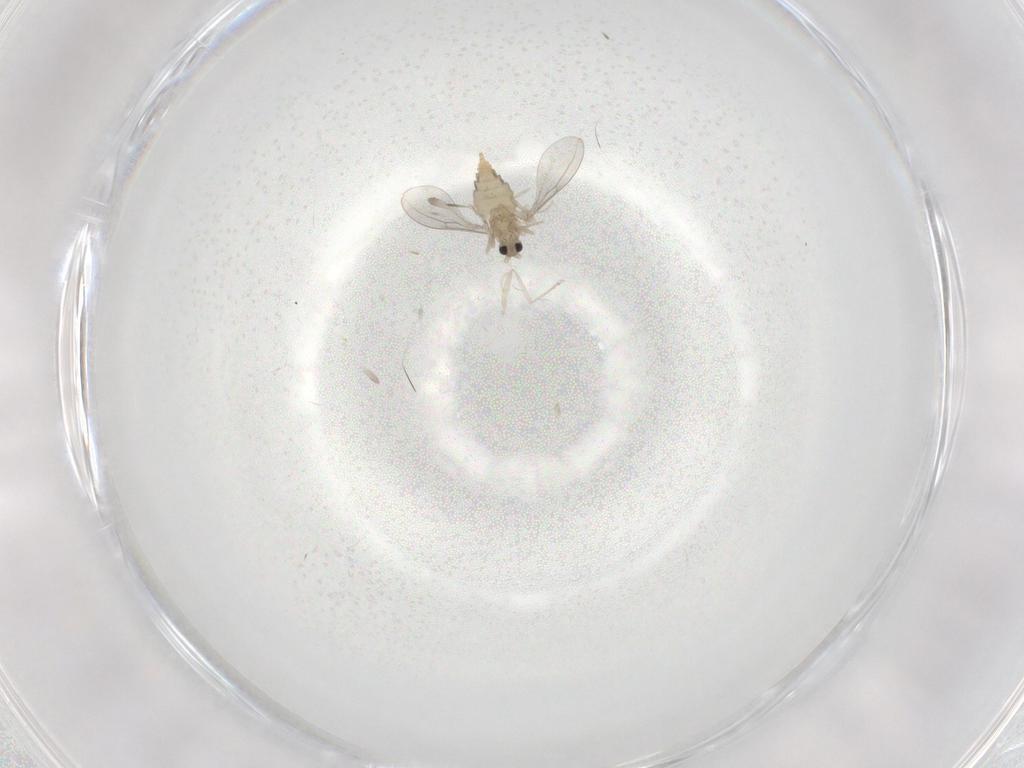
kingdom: Animalia
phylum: Arthropoda
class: Insecta
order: Diptera
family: Cecidomyiidae
